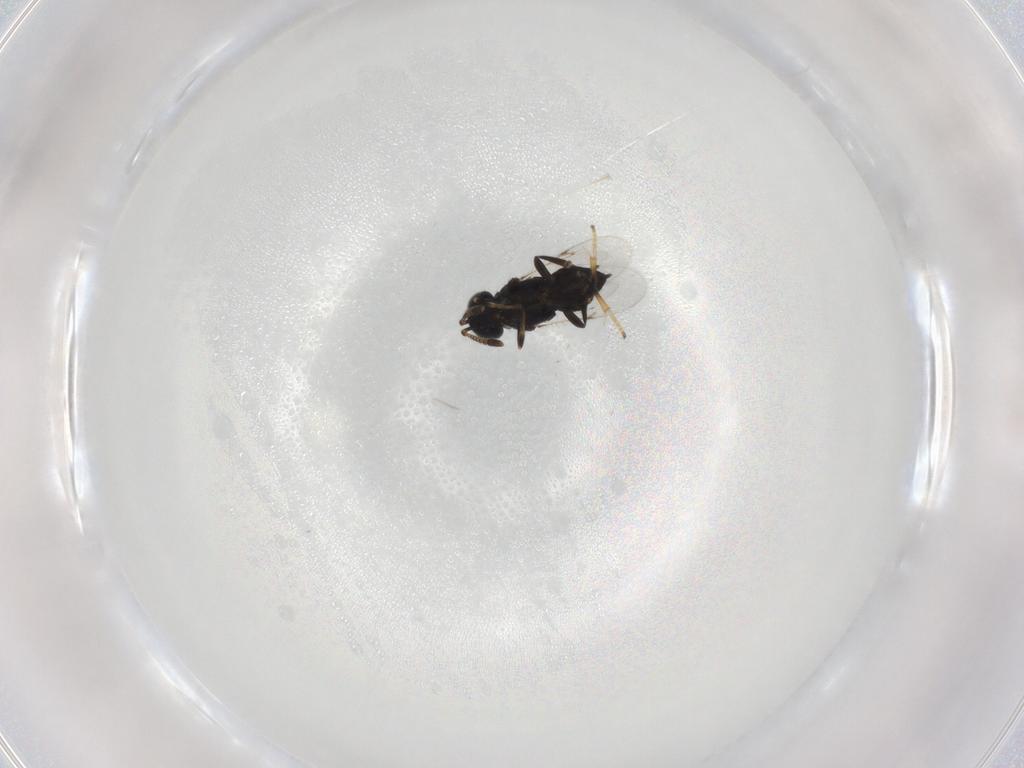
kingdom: Animalia
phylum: Arthropoda
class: Insecta
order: Hymenoptera
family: Encyrtidae
